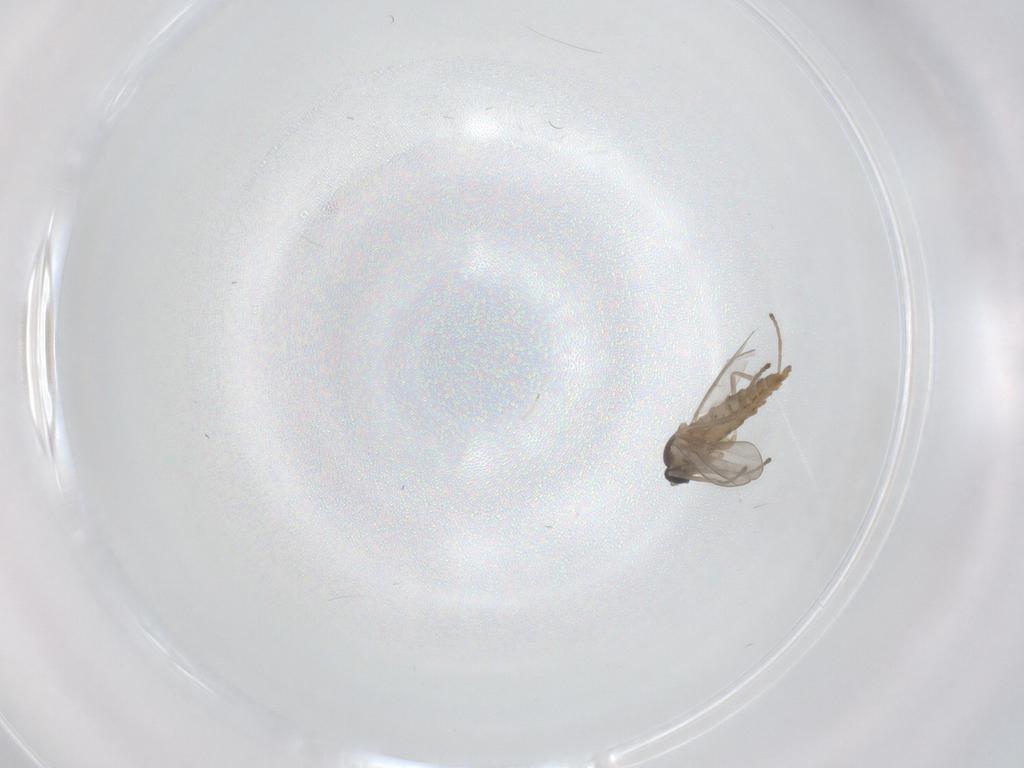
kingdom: Animalia
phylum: Arthropoda
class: Insecta
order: Diptera
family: Cecidomyiidae
